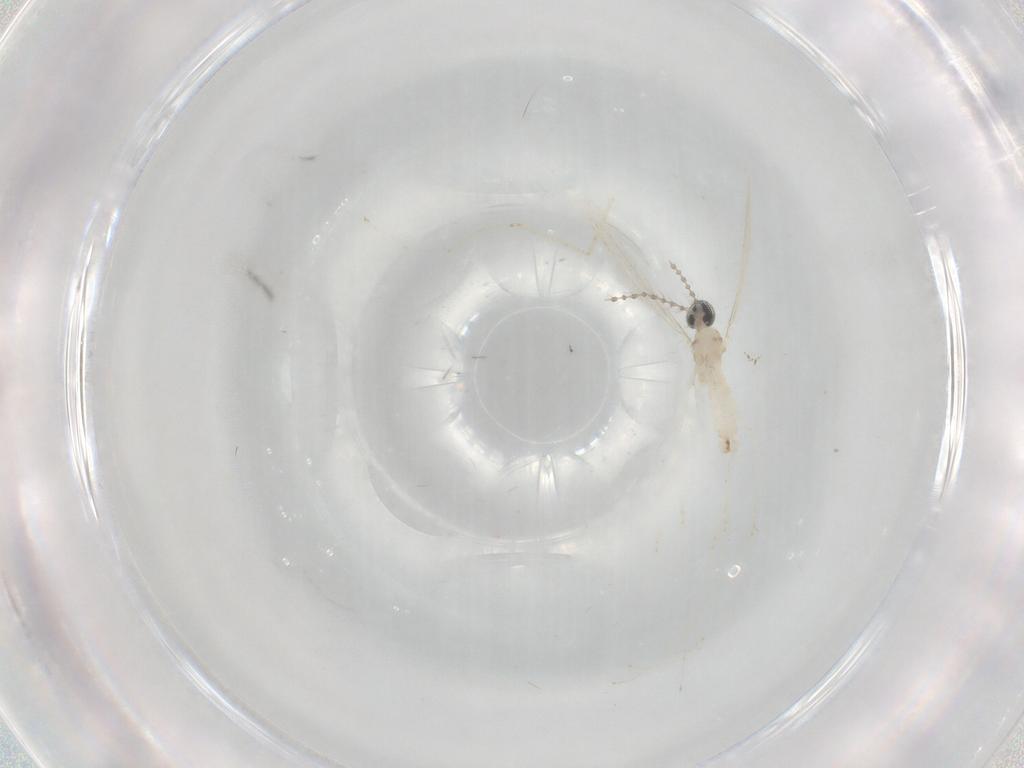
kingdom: Animalia
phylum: Arthropoda
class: Insecta
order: Diptera
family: Cecidomyiidae
